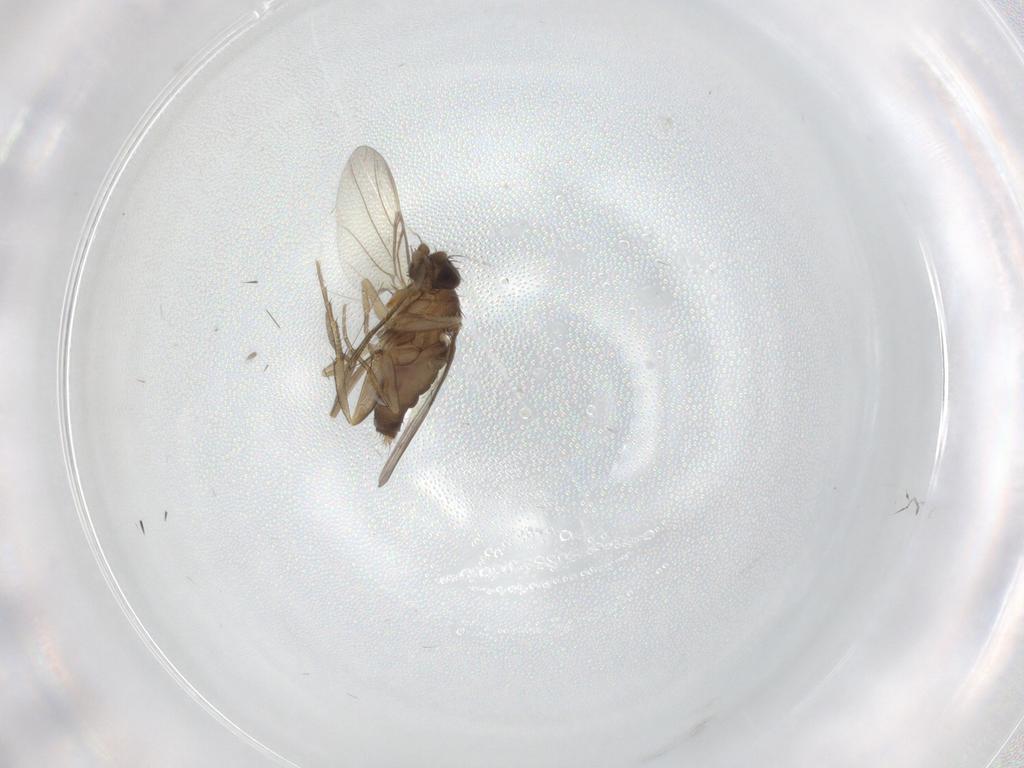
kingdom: Animalia
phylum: Arthropoda
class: Insecta
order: Diptera
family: Phoridae
